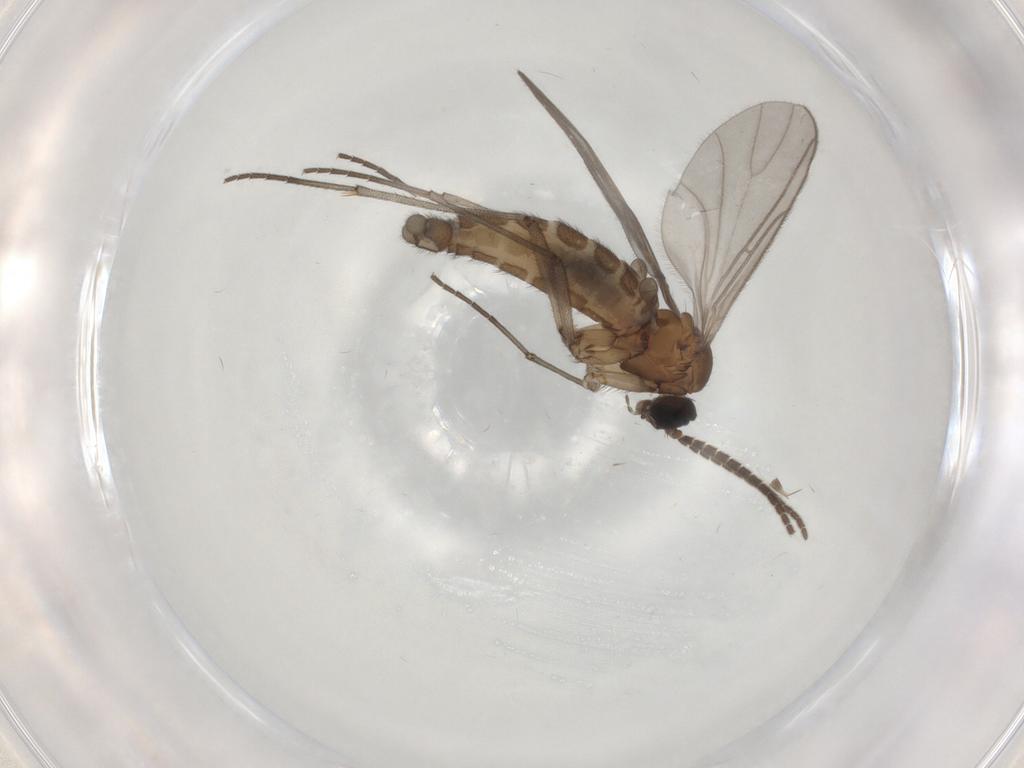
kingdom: Animalia
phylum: Arthropoda
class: Insecta
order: Diptera
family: Sciaridae
